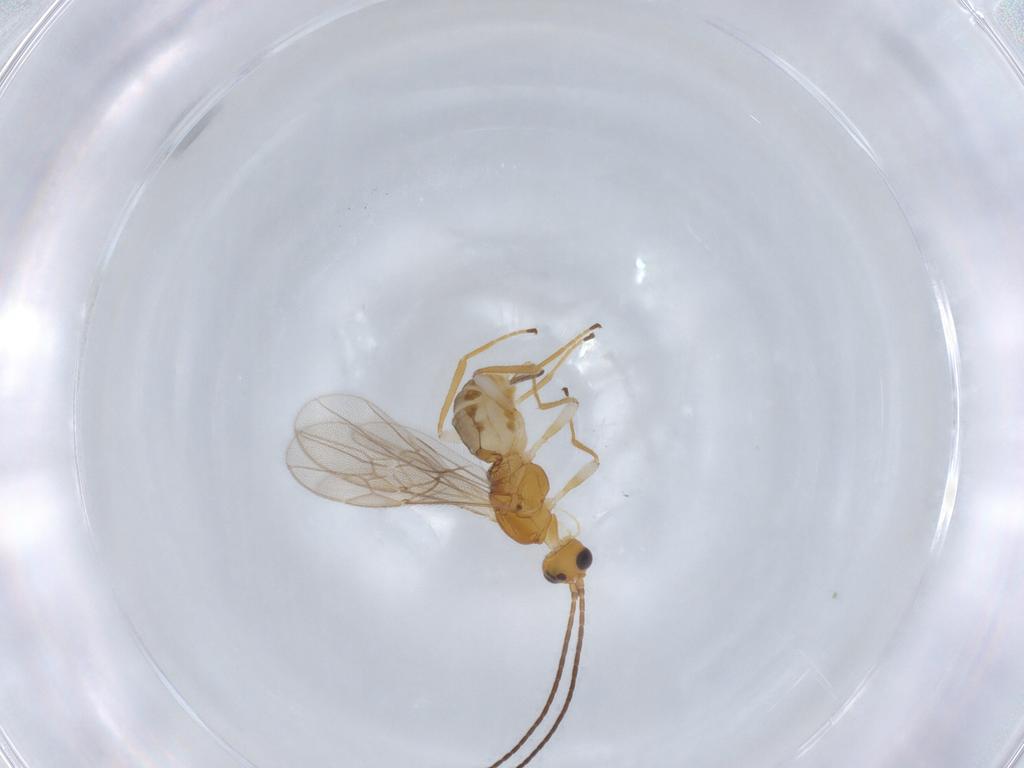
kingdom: Animalia
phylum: Arthropoda
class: Insecta
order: Hymenoptera
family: Braconidae
